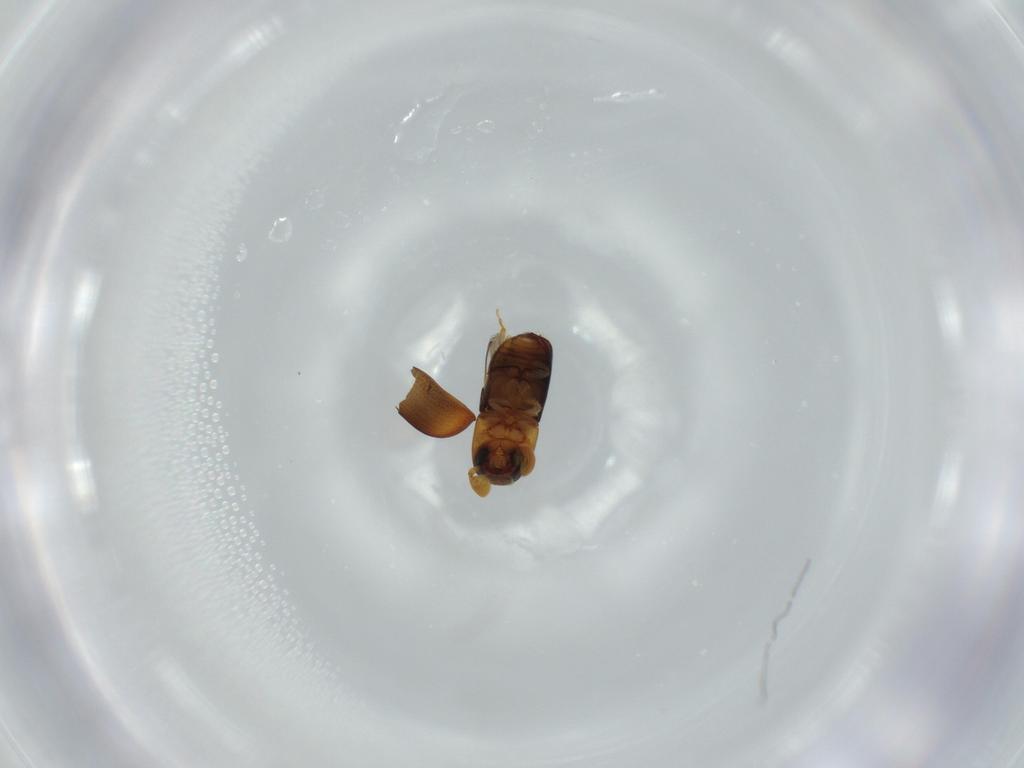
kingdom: Animalia
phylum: Arthropoda
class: Insecta
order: Coleoptera
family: Curculionidae
